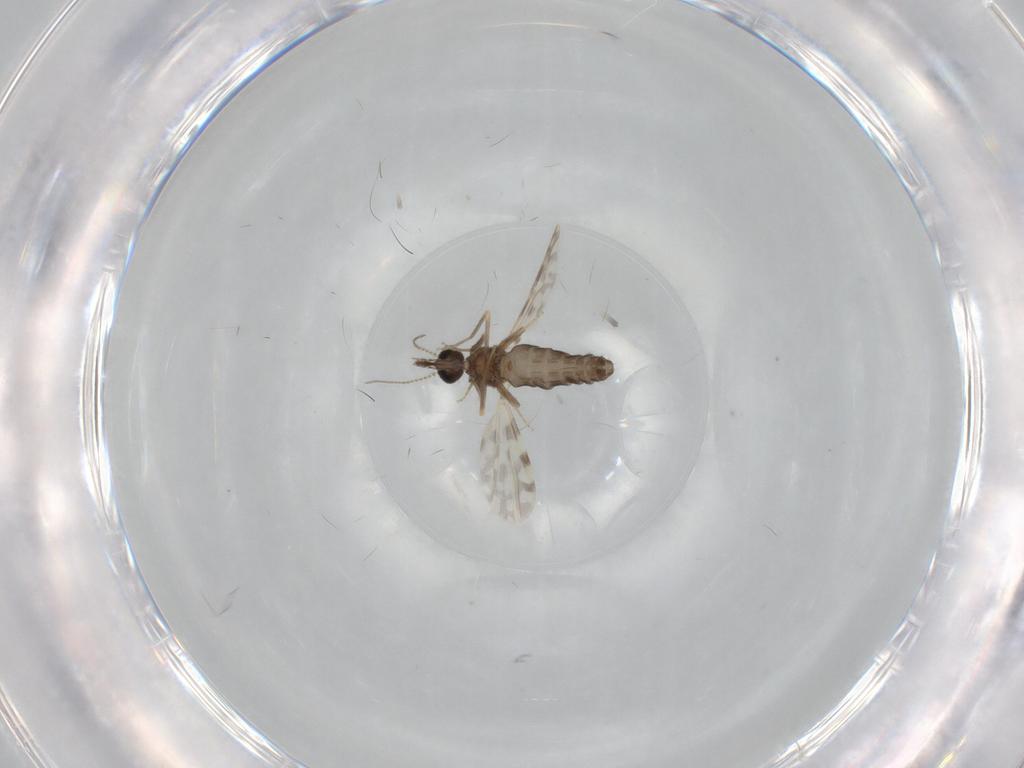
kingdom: Animalia
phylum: Arthropoda
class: Insecta
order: Diptera
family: Ceratopogonidae
